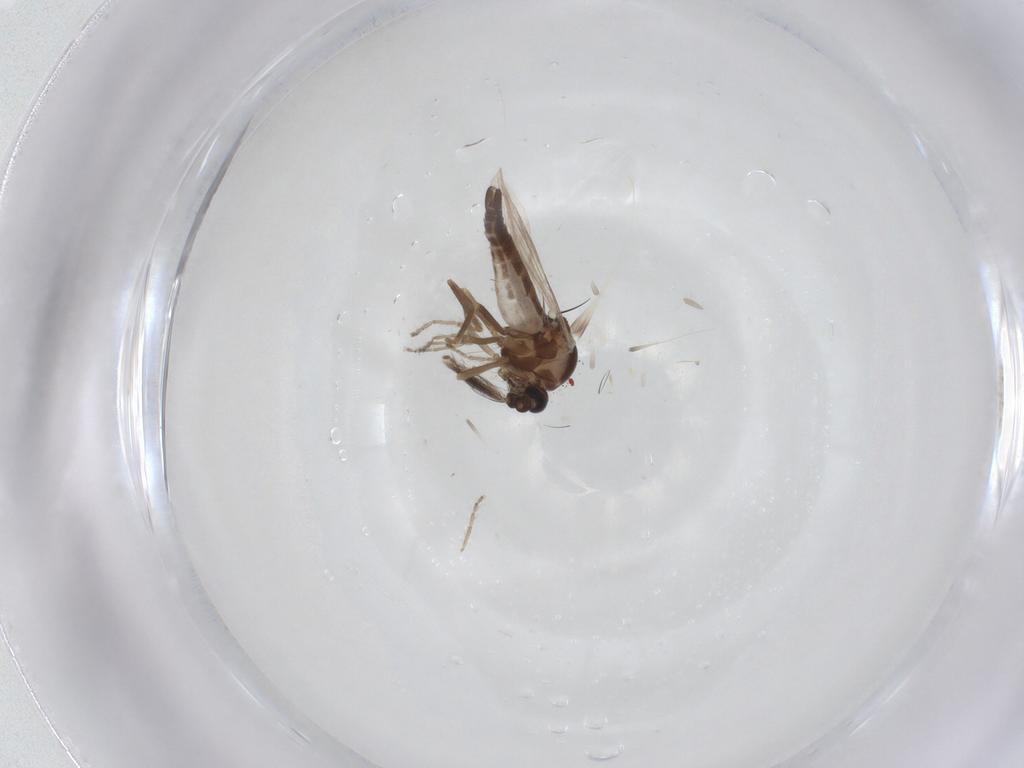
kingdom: Animalia
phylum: Arthropoda
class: Insecta
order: Diptera
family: Ceratopogonidae
